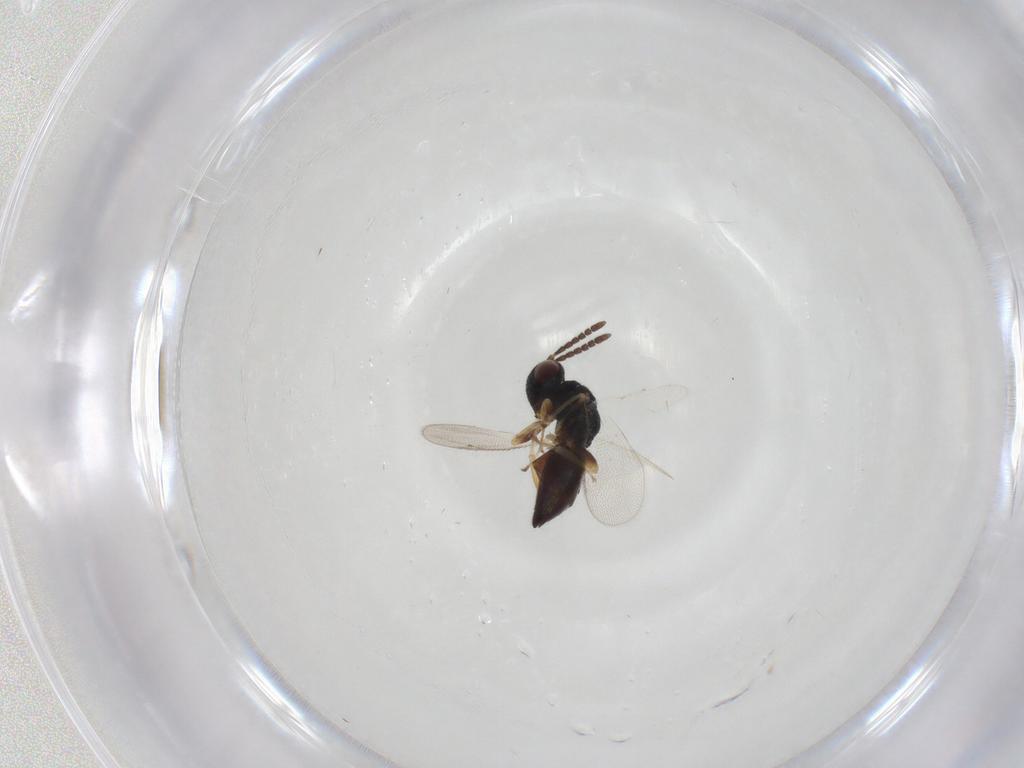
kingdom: Animalia
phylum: Arthropoda
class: Insecta
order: Hymenoptera
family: Pteromalidae
